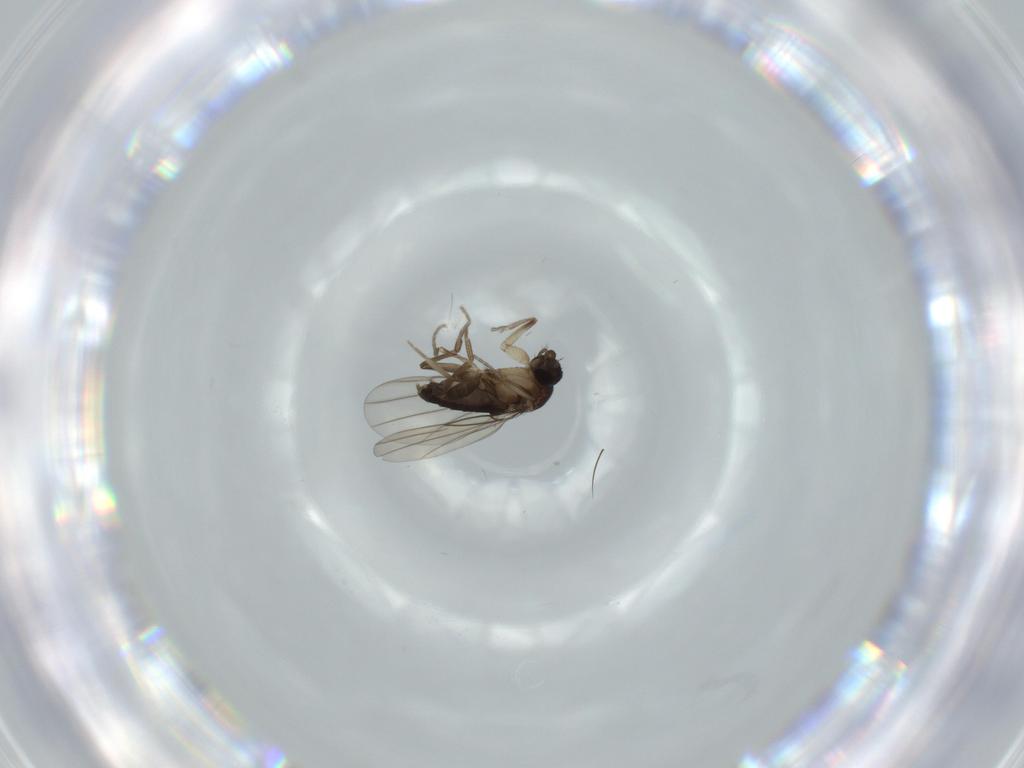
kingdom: Animalia
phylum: Arthropoda
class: Insecta
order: Diptera
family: Phoridae
